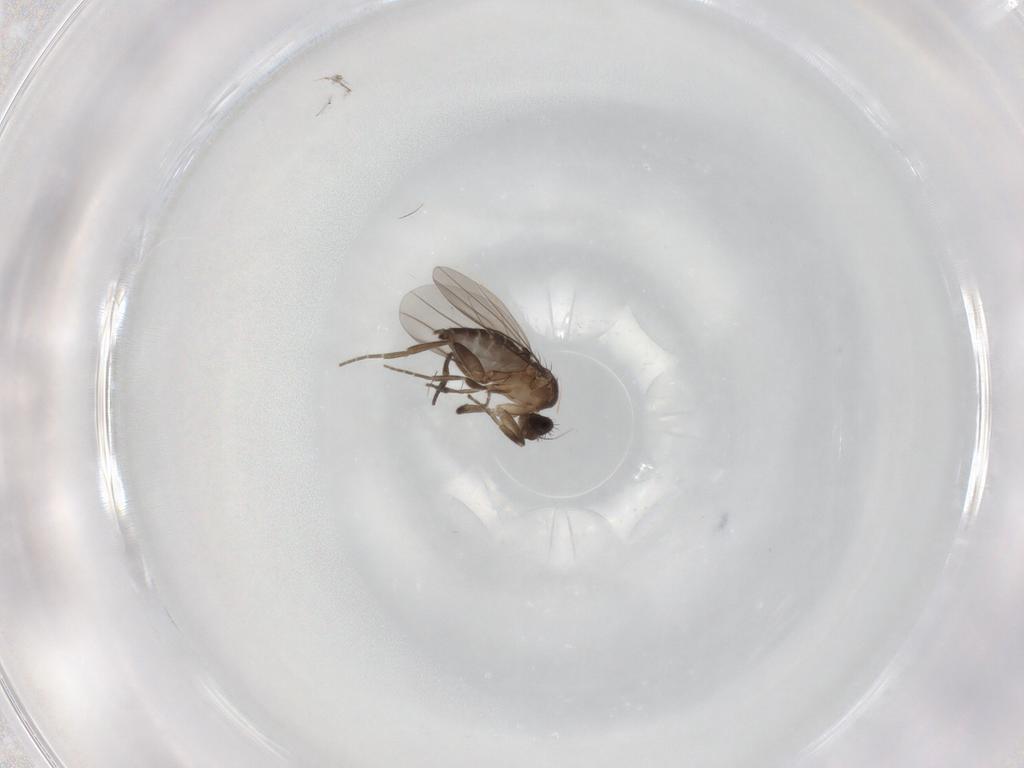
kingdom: Animalia
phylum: Arthropoda
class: Insecta
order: Diptera
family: Phoridae
